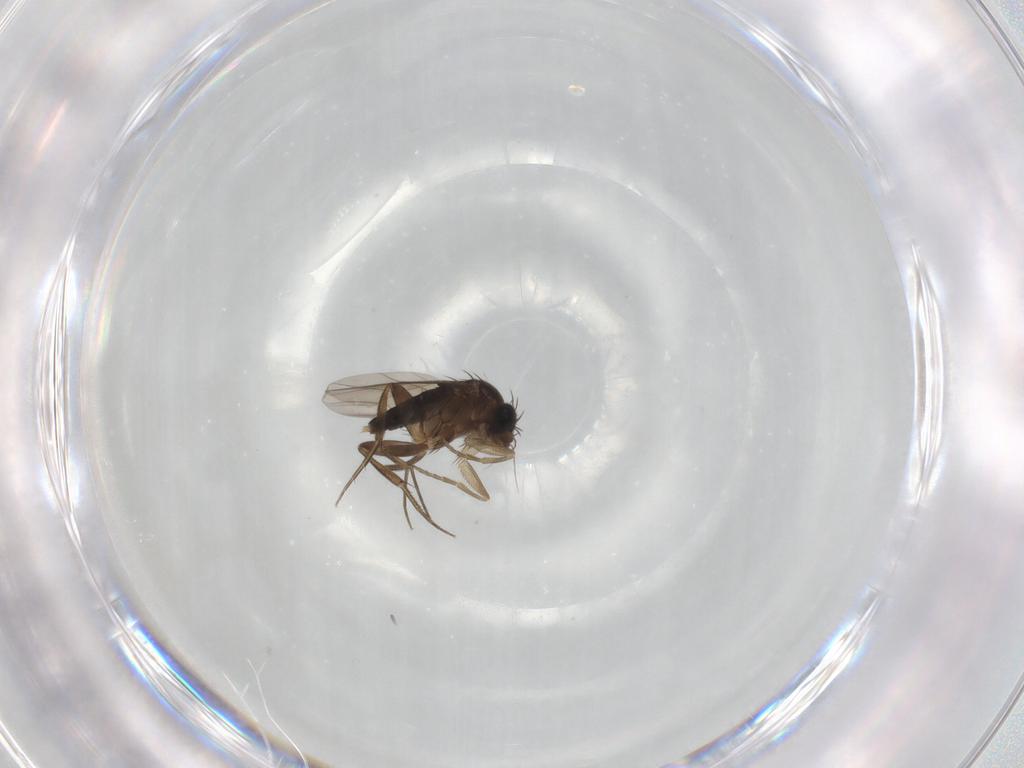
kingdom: Animalia
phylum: Arthropoda
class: Insecta
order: Diptera
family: Phoridae
